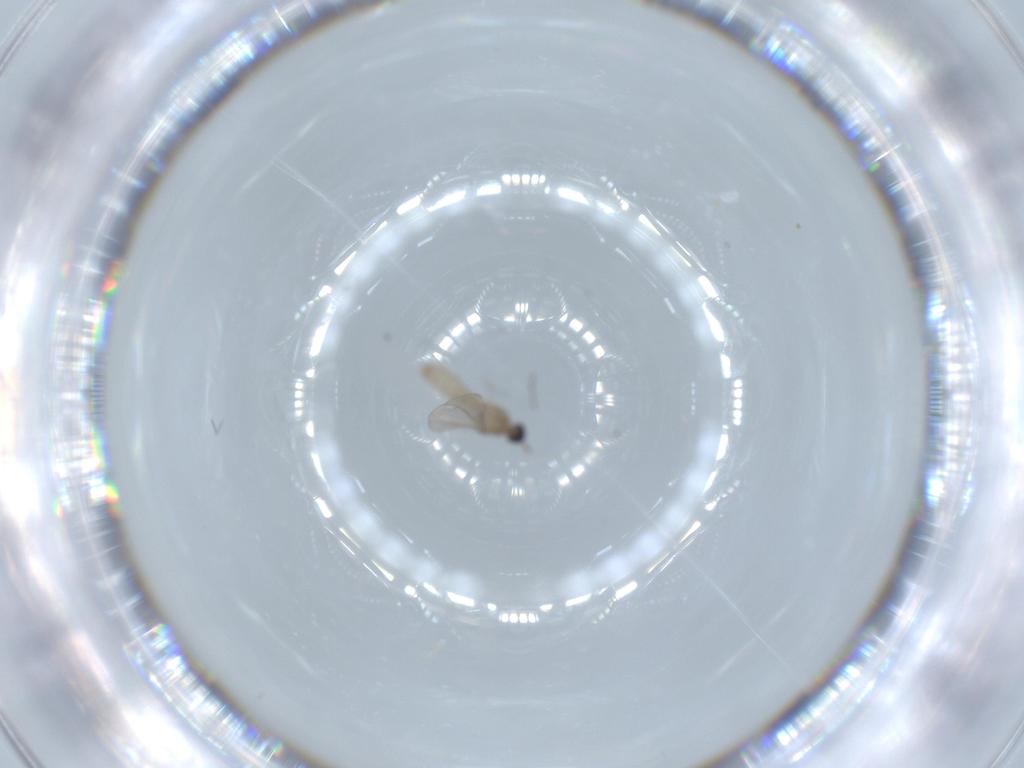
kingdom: Animalia
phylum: Arthropoda
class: Insecta
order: Diptera
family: Cecidomyiidae
